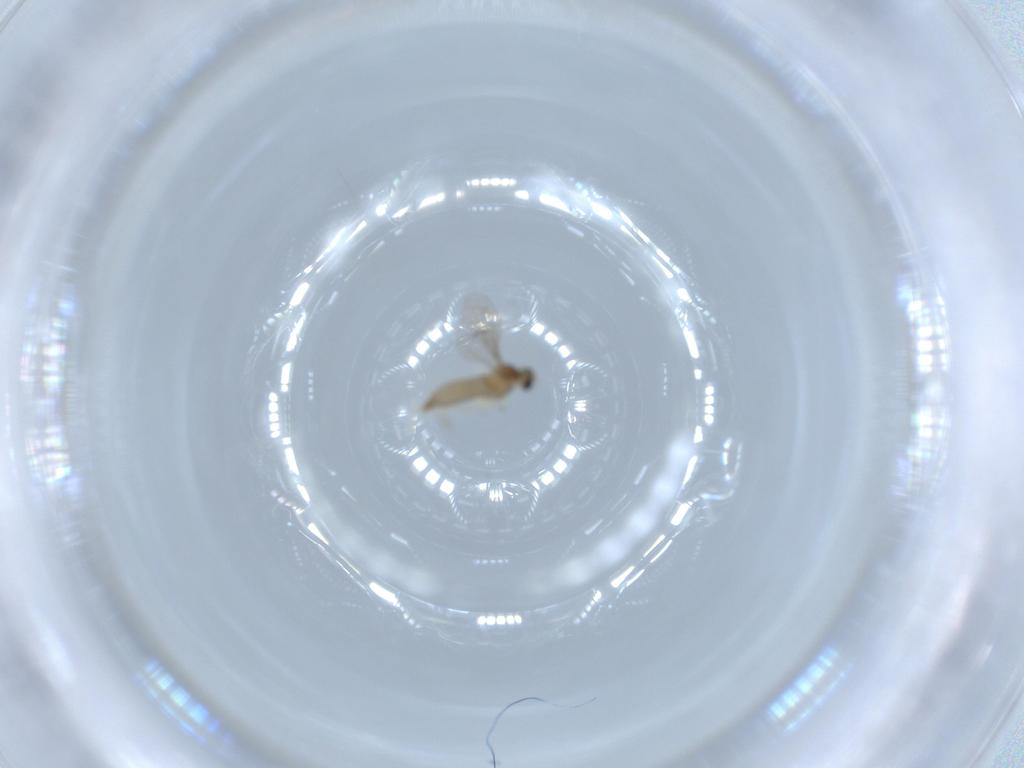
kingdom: Animalia
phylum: Arthropoda
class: Insecta
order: Diptera
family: Cecidomyiidae
